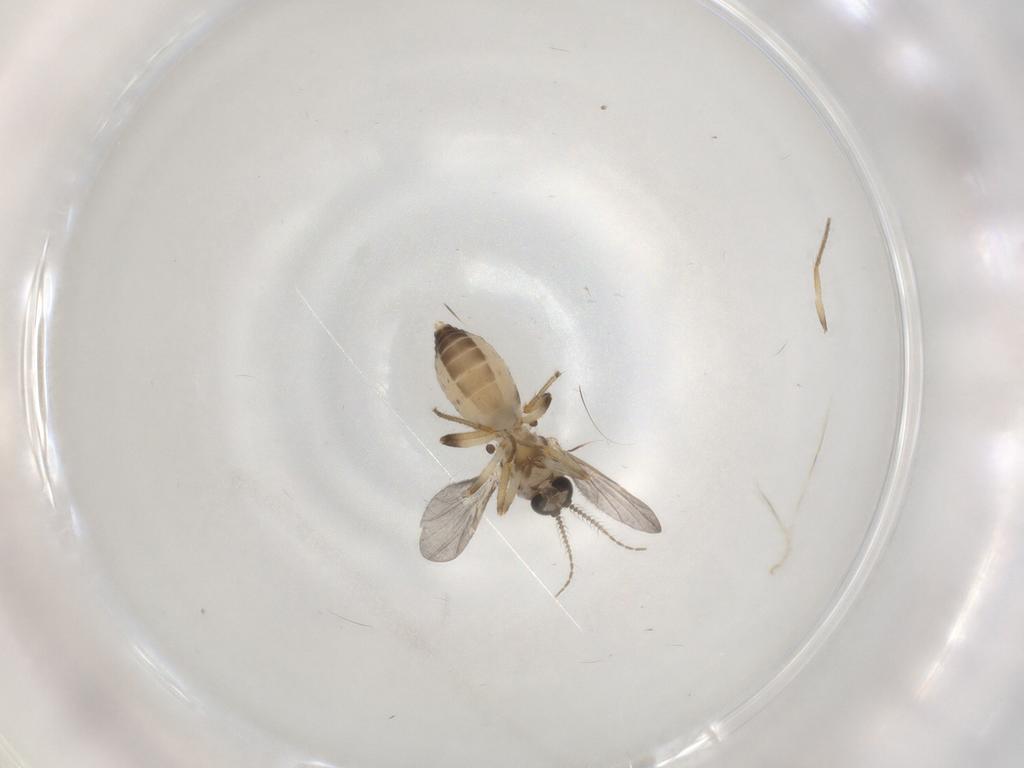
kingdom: Animalia
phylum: Arthropoda
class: Insecta
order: Diptera
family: Ceratopogonidae
